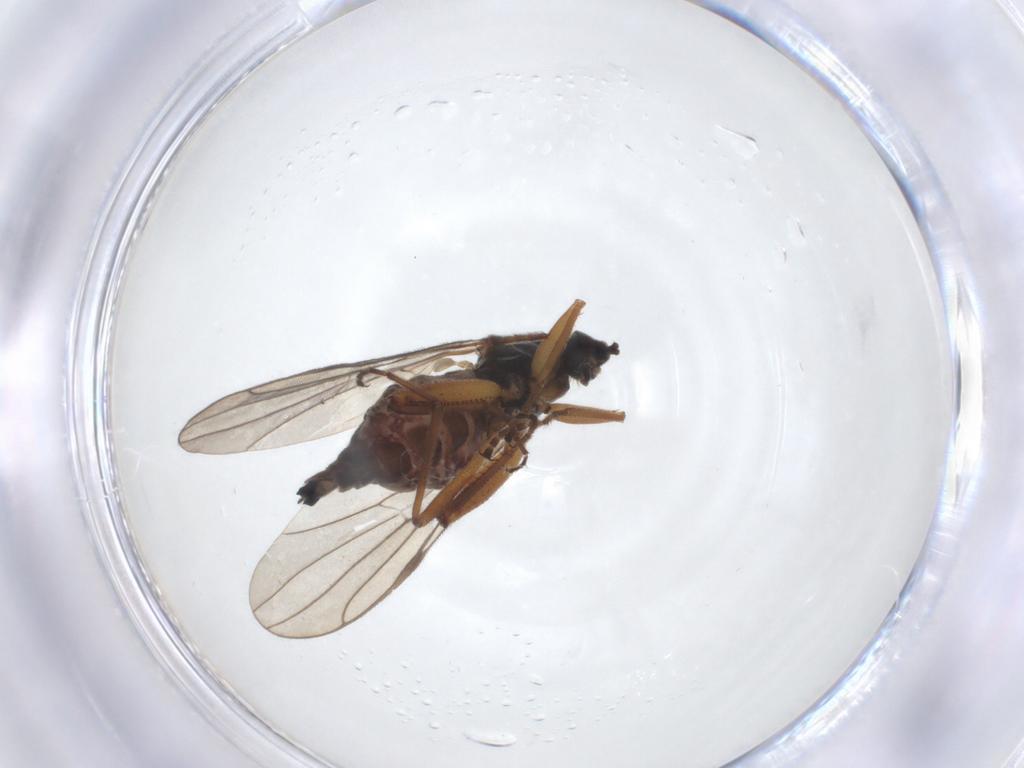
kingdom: Animalia
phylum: Arthropoda
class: Insecta
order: Diptera
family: Hybotidae
